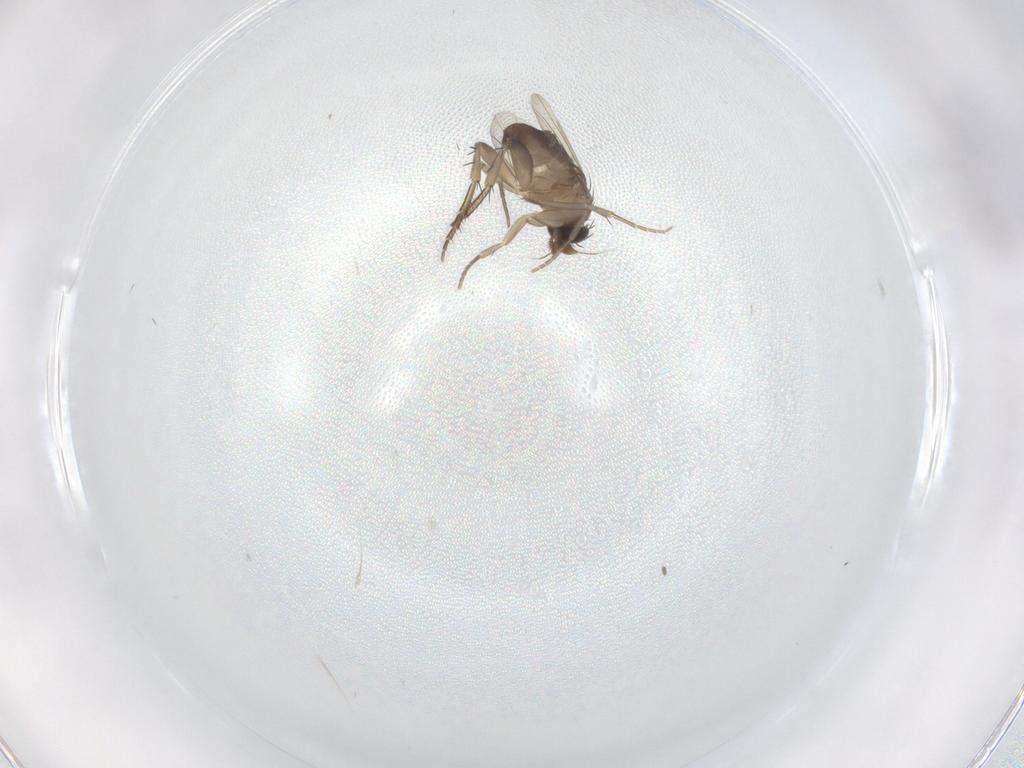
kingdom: Animalia
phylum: Arthropoda
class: Insecta
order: Diptera
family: Phoridae
